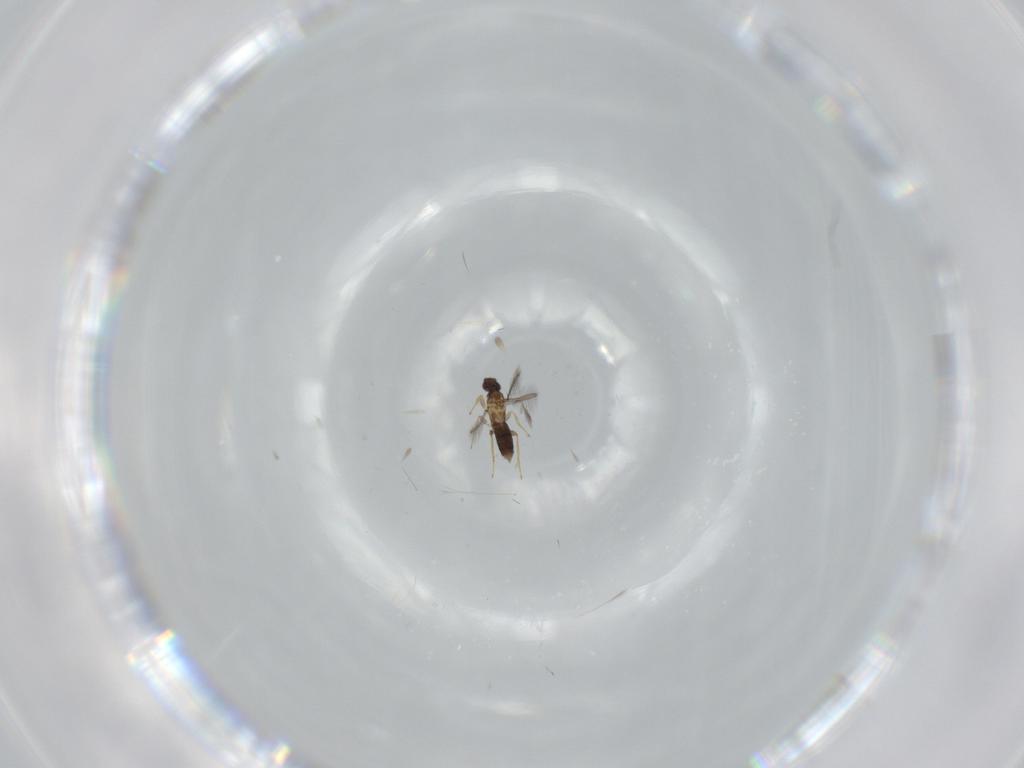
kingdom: Animalia
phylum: Arthropoda
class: Insecta
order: Hymenoptera
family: Mymaridae
